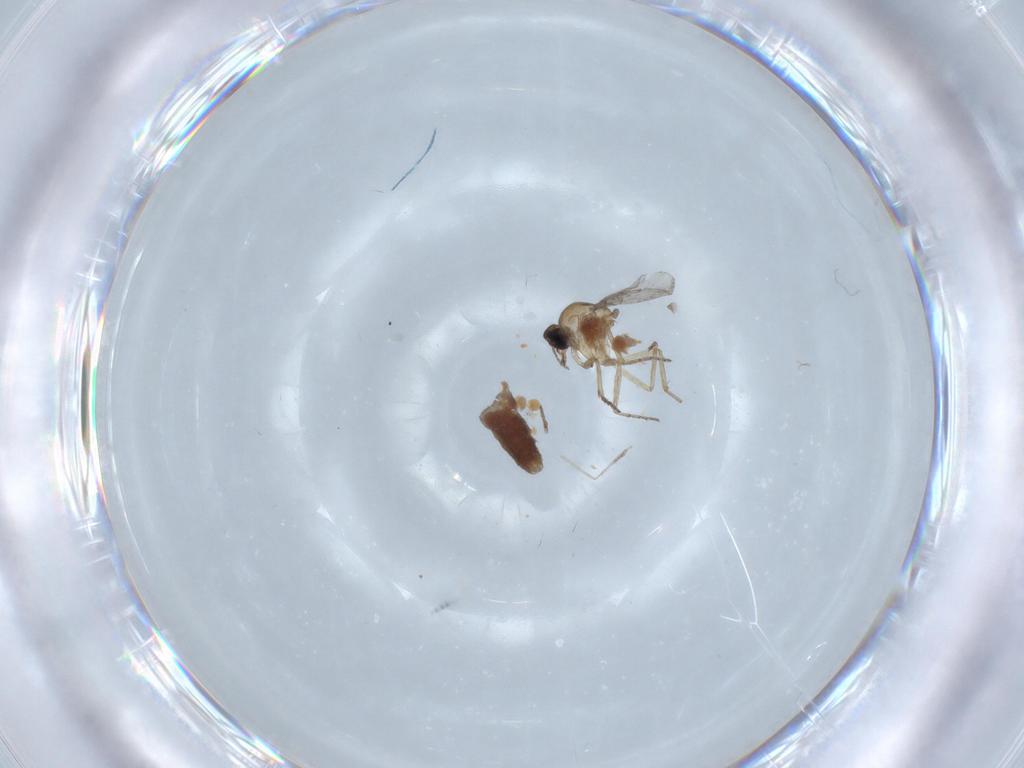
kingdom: Animalia
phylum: Arthropoda
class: Insecta
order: Diptera
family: Ceratopogonidae
